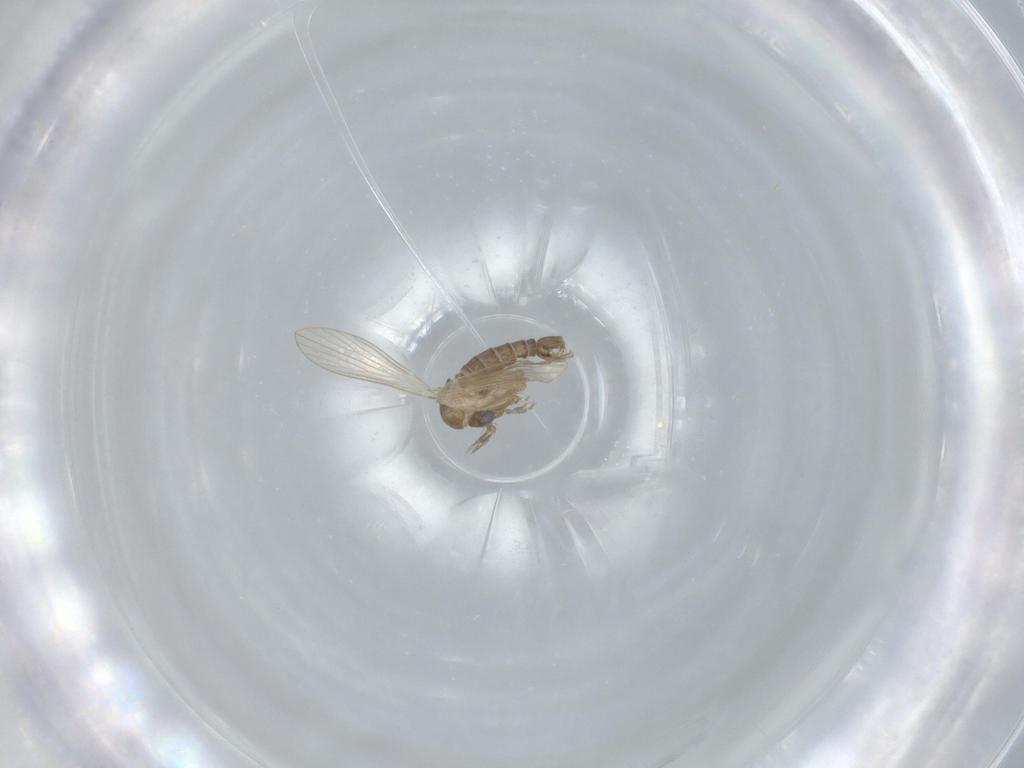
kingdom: Animalia
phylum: Arthropoda
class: Insecta
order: Diptera
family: Psychodidae
